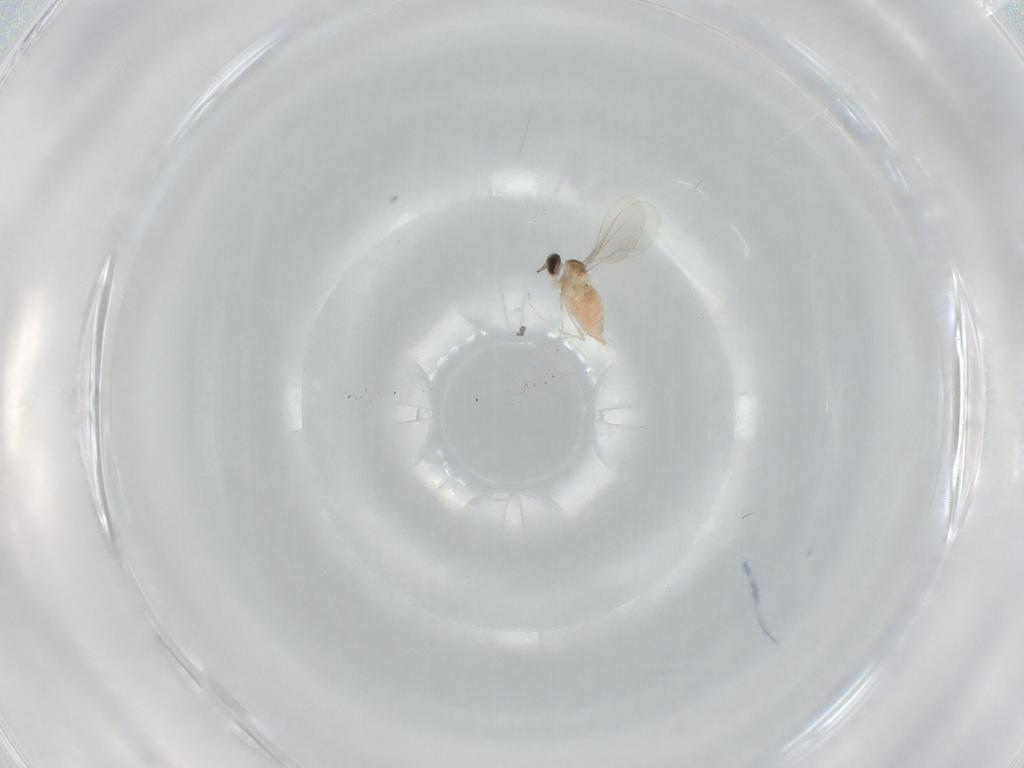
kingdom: Animalia
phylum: Arthropoda
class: Insecta
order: Diptera
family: Cecidomyiidae
